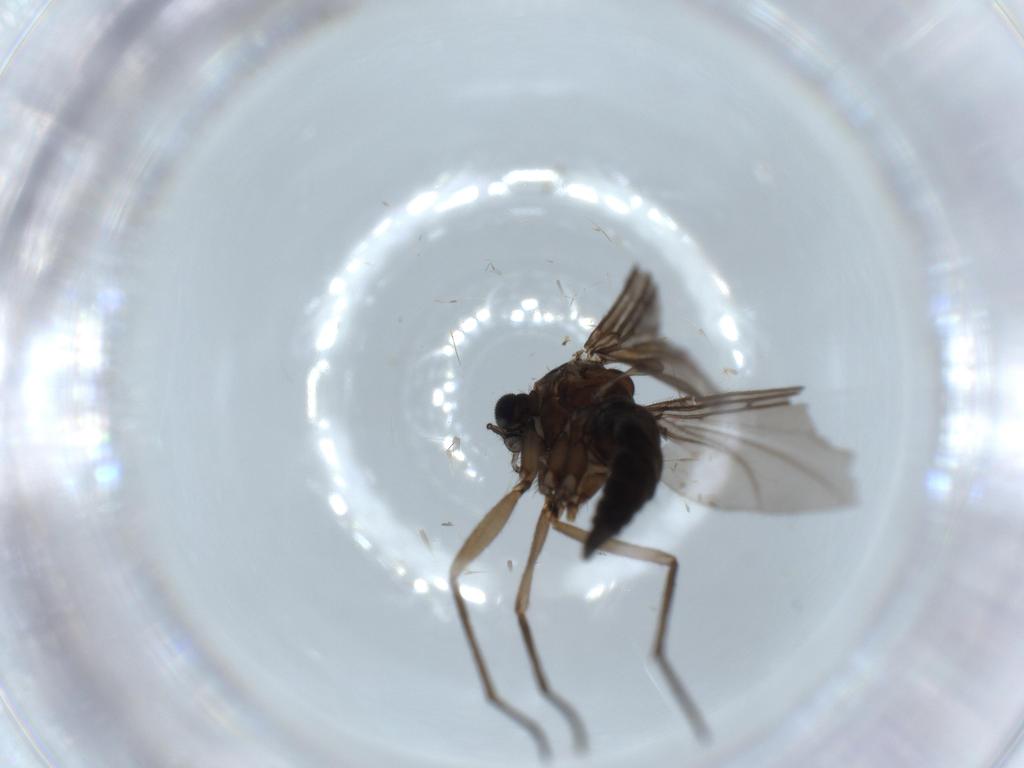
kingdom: Animalia
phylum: Arthropoda
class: Insecta
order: Diptera
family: Sciaridae
